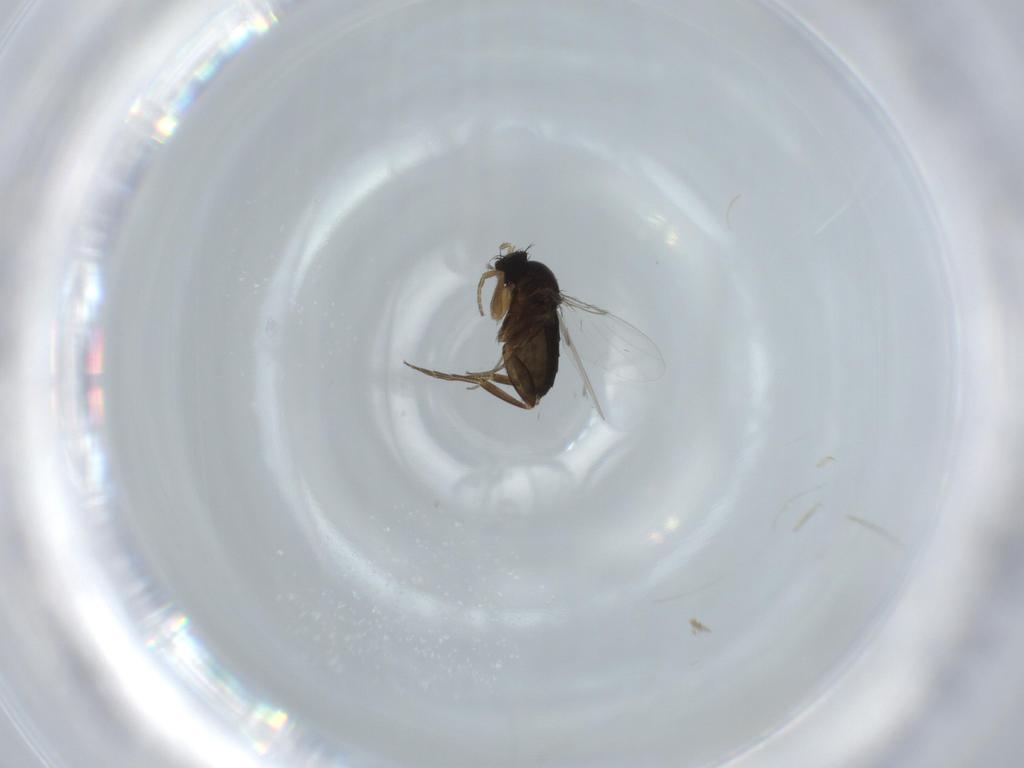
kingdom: Animalia
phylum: Arthropoda
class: Insecta
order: Diptera
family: Phoridae
